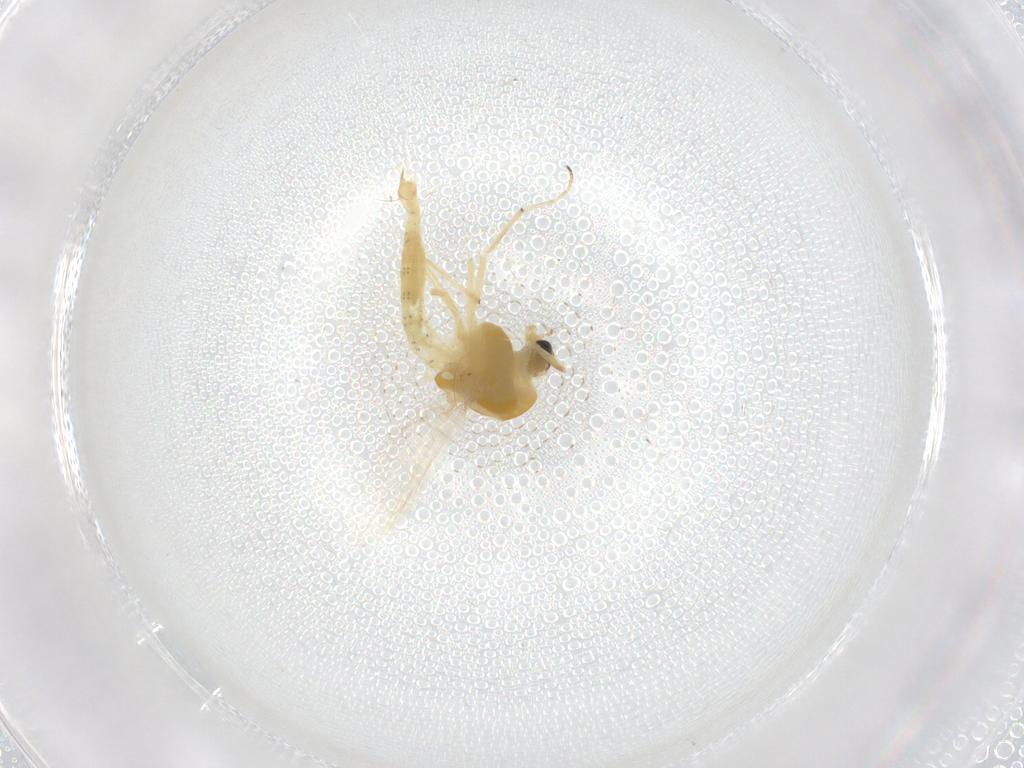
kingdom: Animalia
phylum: Arthropoda
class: Insecta
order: Diptera
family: Chironomidae
